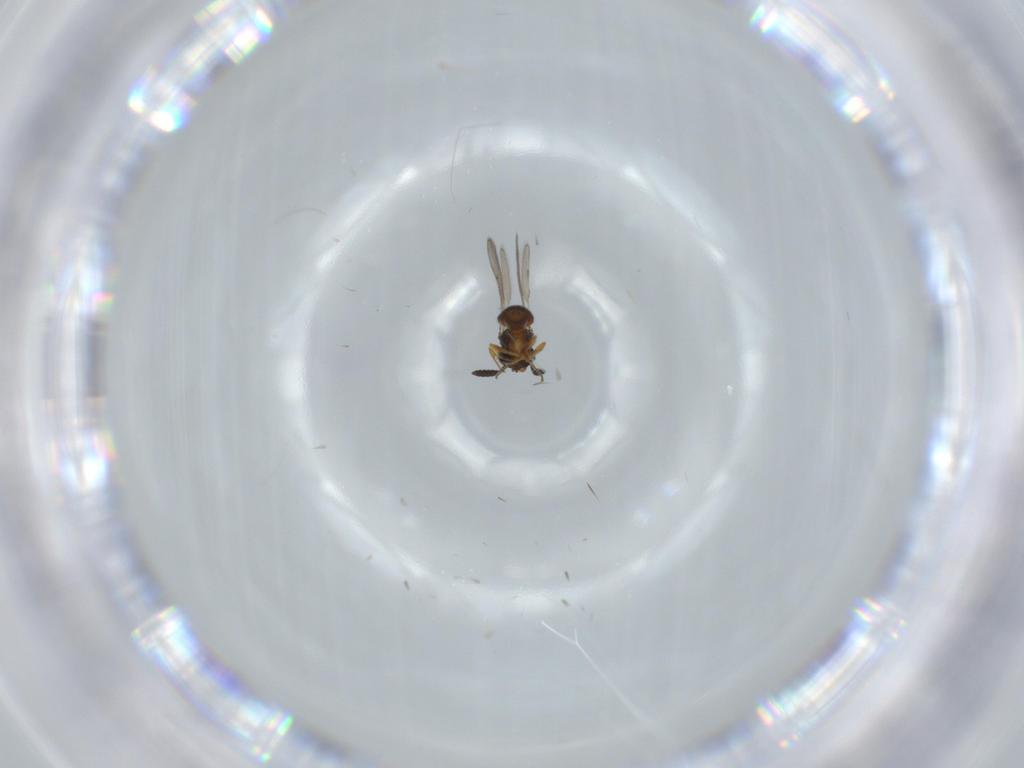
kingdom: Animalia
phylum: Arthropoda
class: Insecta
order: Hymenoptera
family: Scelionidae
